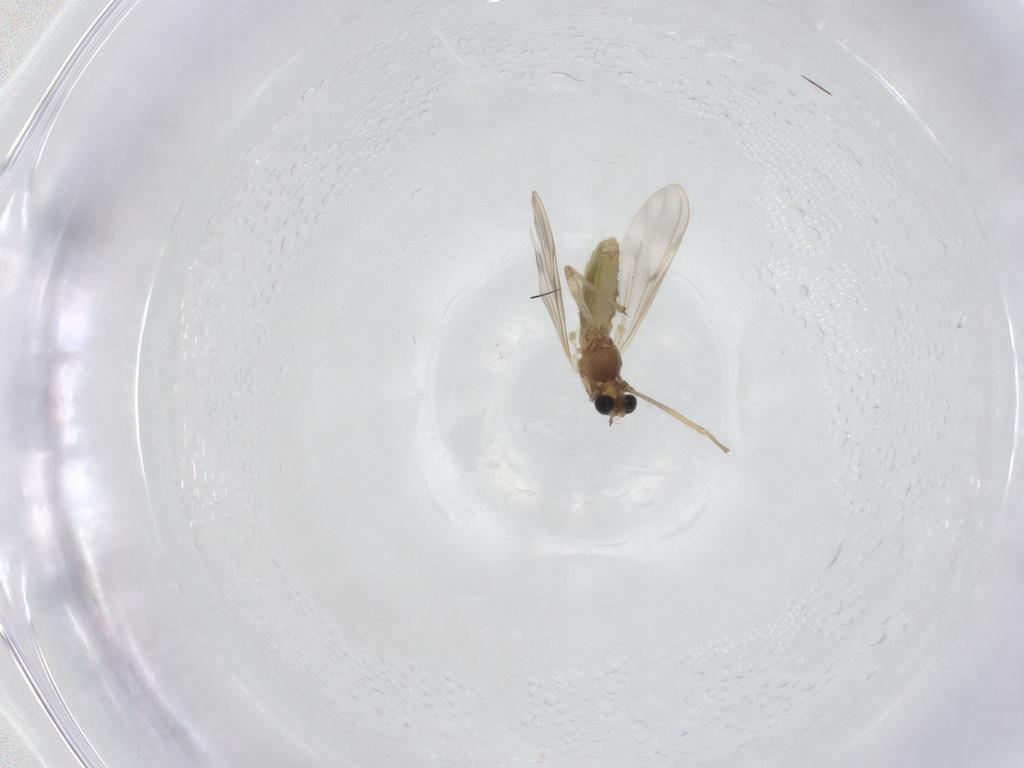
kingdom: Animalia
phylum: Arthropoda
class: Insecta
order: Diptera
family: Chironomidae
